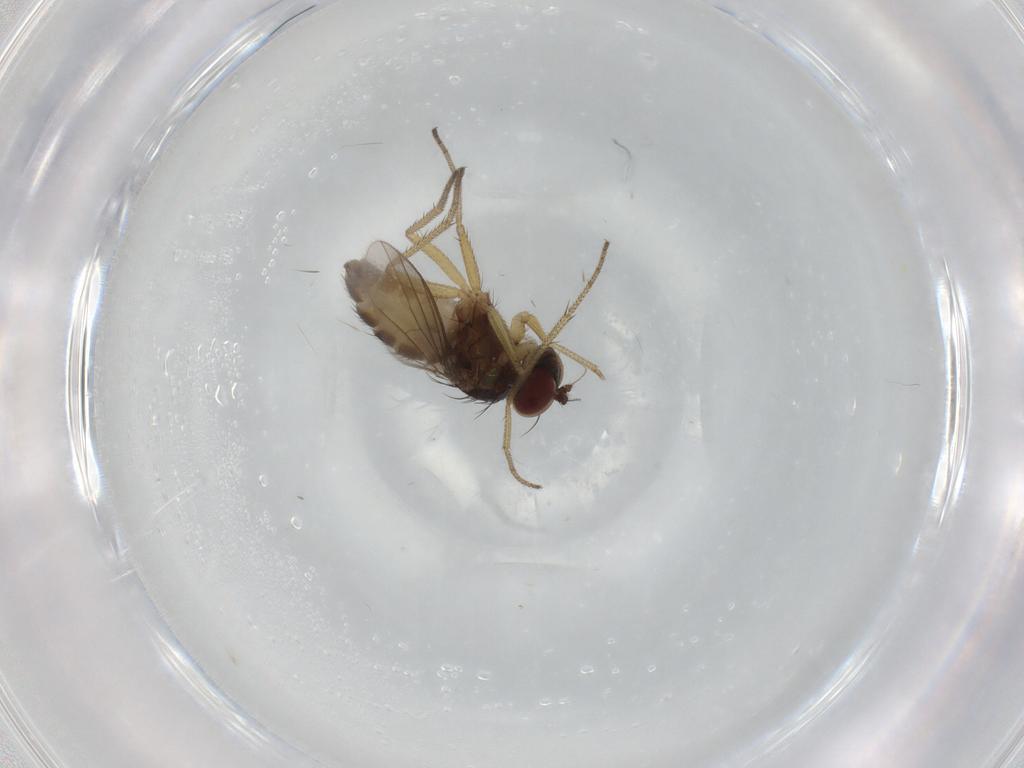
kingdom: Animalia
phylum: Arthropoda
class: Insecta
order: Diptera
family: Dolichopodidae
